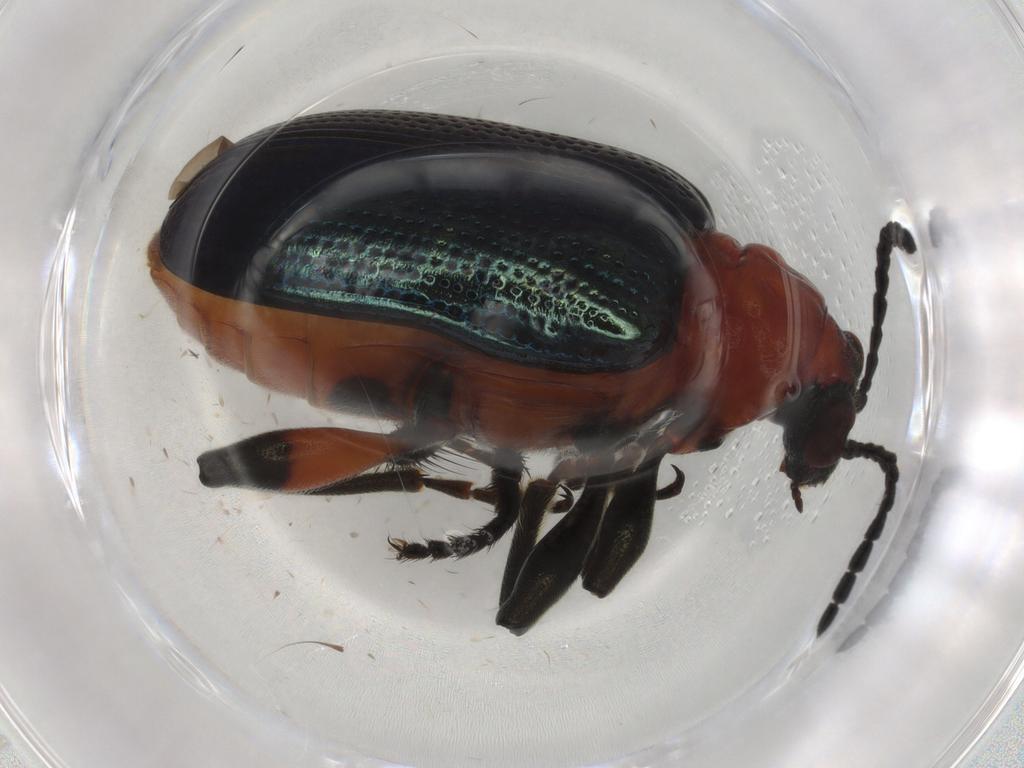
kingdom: Animalia
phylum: Arthropoda
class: Insecta
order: Coleoptera
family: Chrysomelidae
